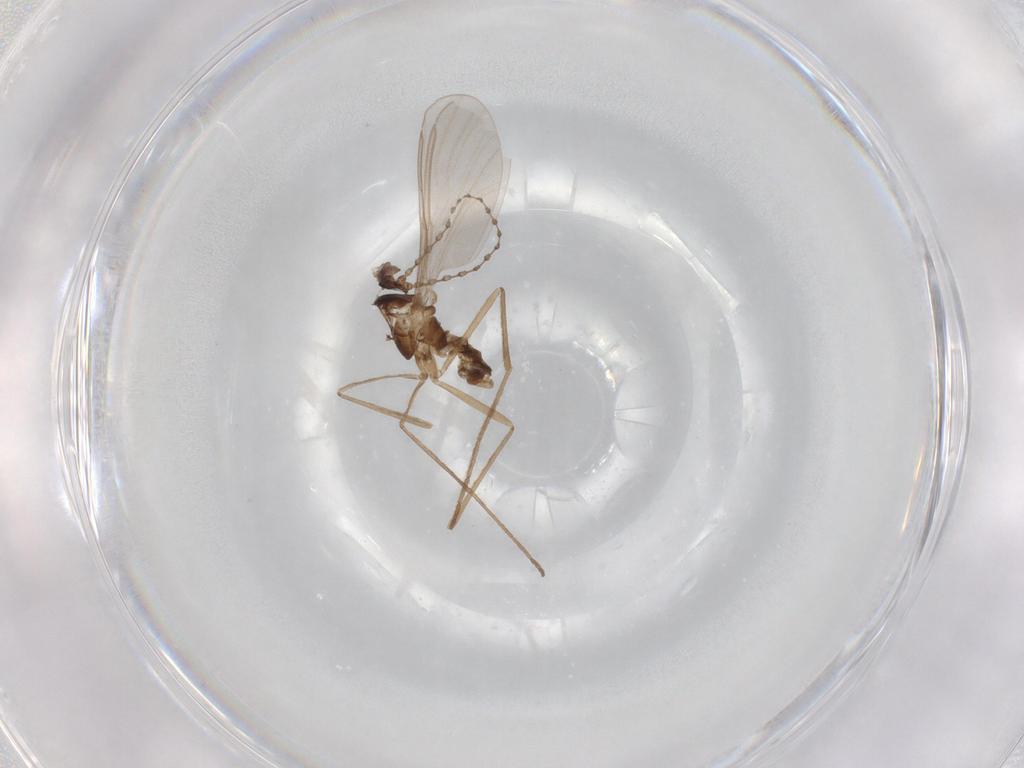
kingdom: Animalia
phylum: Arthropoda
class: Insecta
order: Diptera
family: Cecidomyiidae
